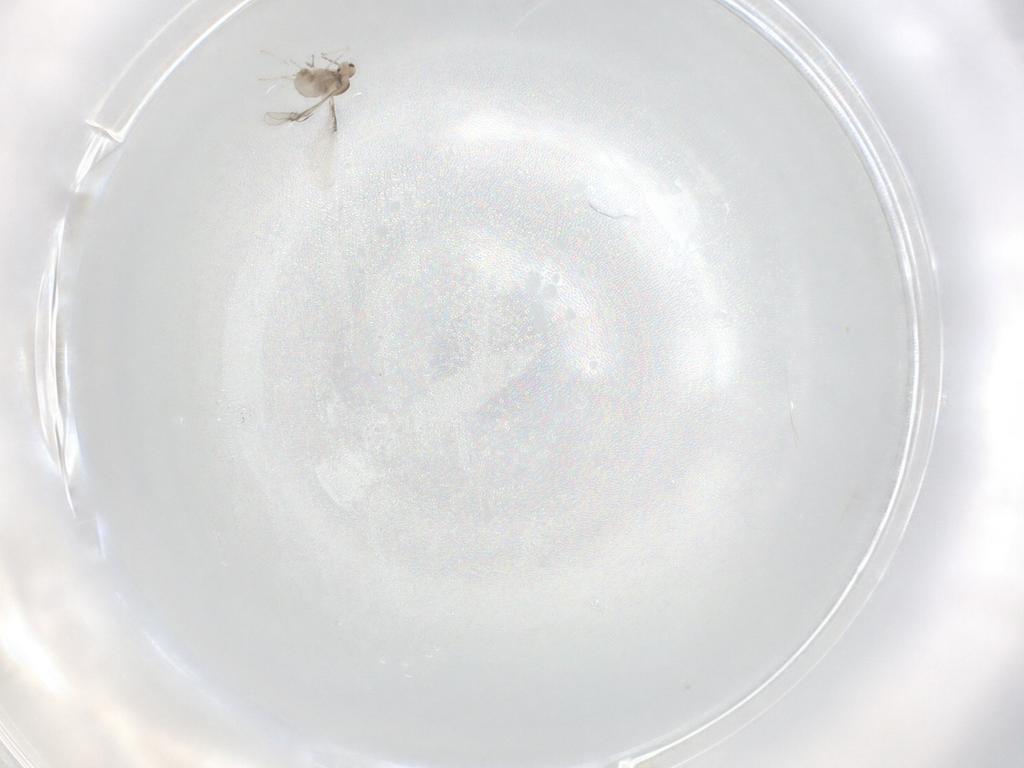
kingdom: Animalia
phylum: Arthropoda
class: Insecta
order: Diptera
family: Cecidomyiidae
